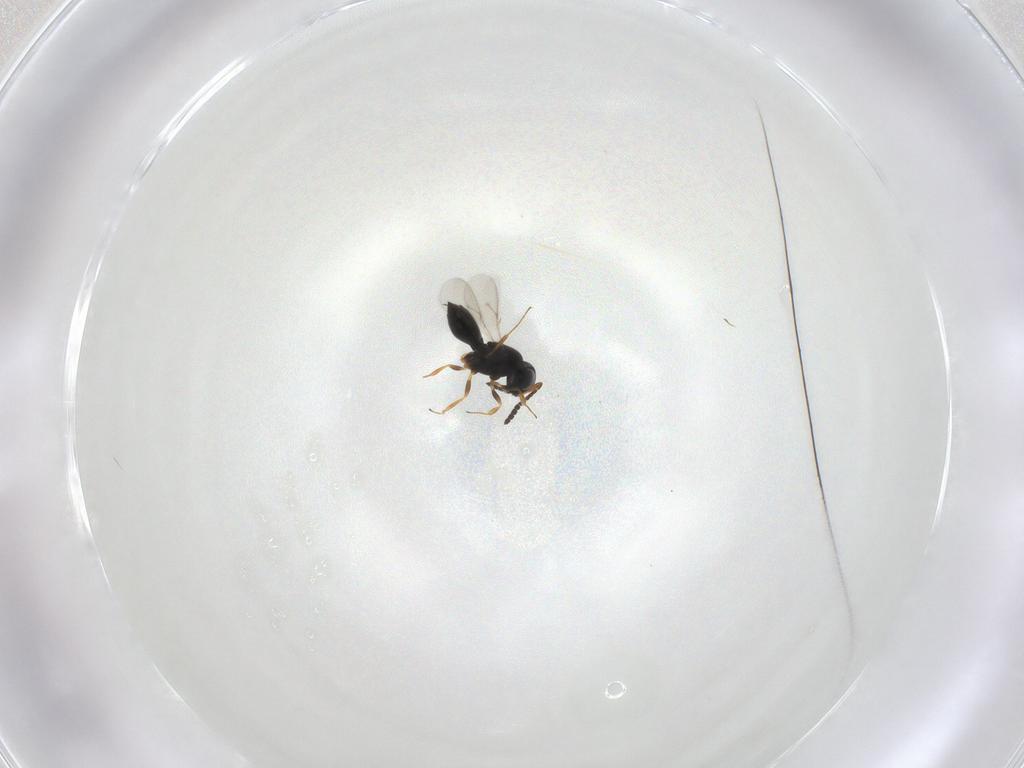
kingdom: Animalia
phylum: Arthropoda
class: Insecta
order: Hymenoptera
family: Scelionidae
